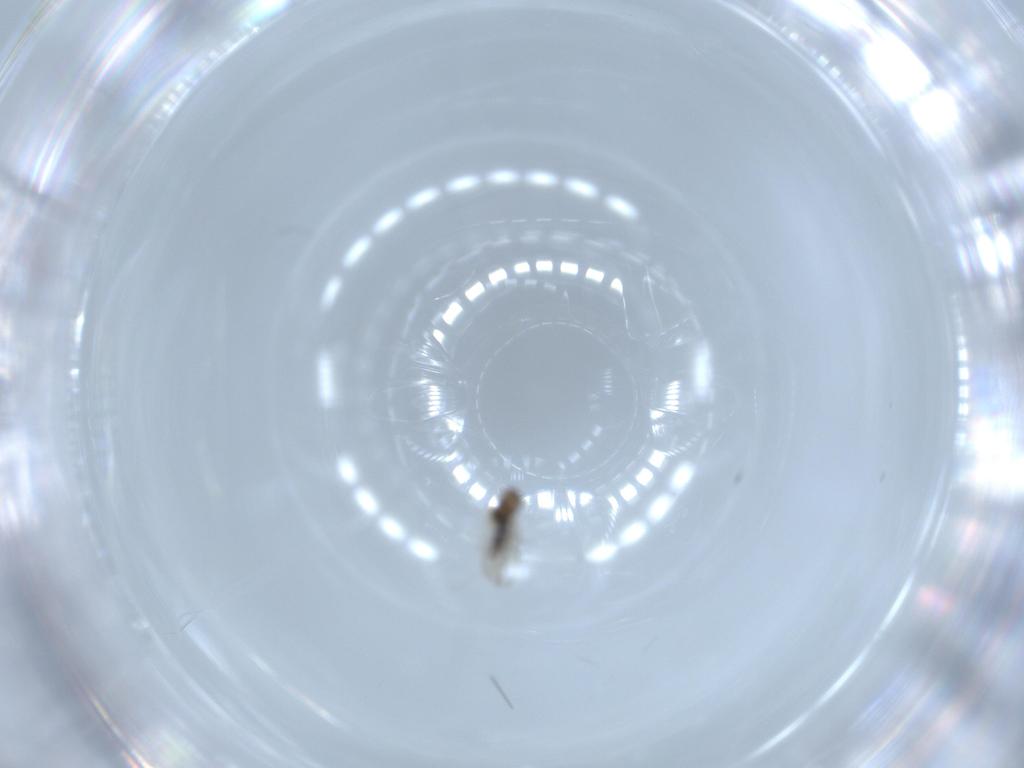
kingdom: Animalia
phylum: Arthropoda
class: Insecta
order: Diptera
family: Cecidomyiidae
